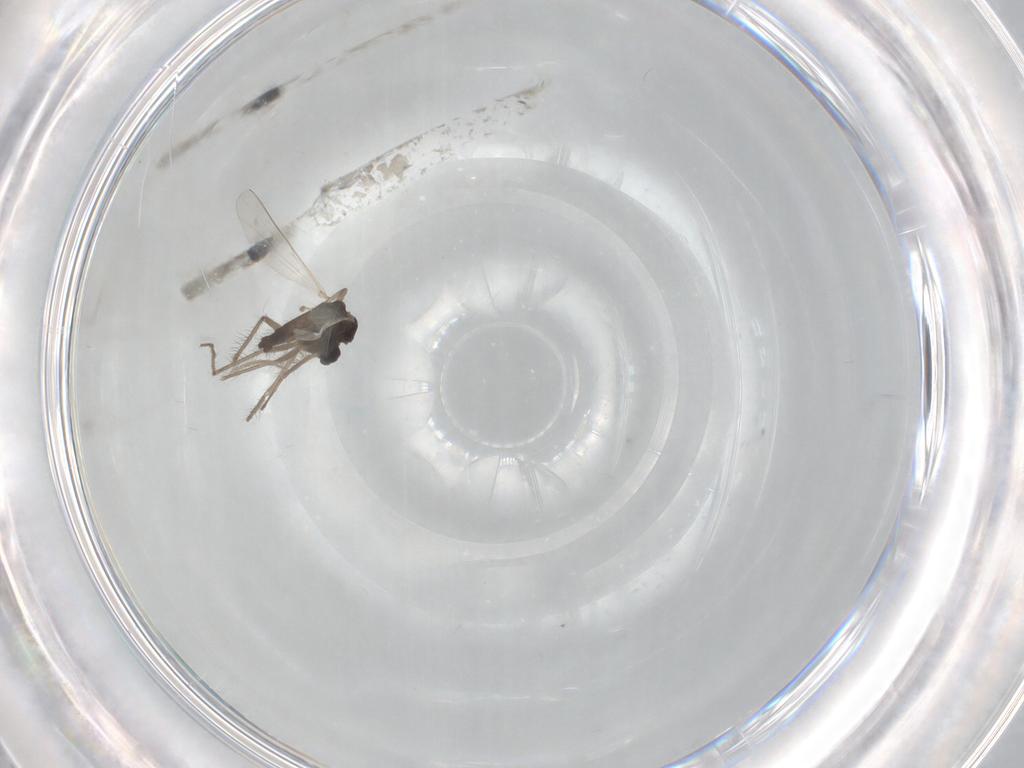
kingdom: Animalia
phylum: Arthropoda
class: Insecta
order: Diptera
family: Chironomidae
